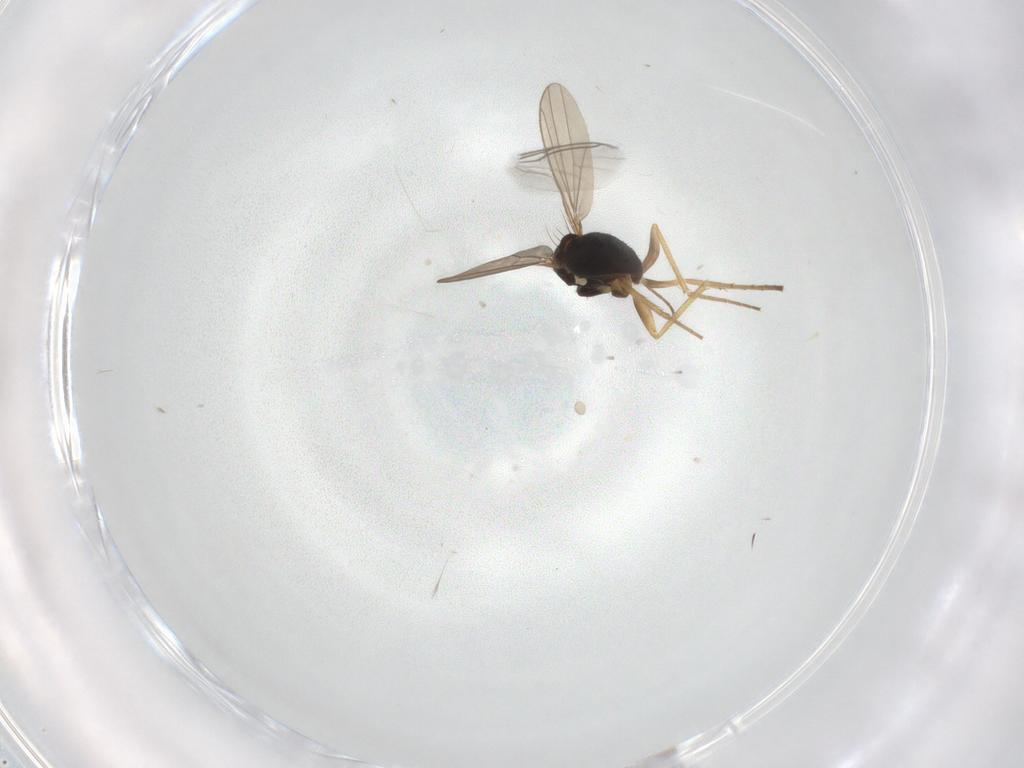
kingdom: Animalia
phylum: Arthropoda
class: Insecta
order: Diptera
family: Dolichopodidae
